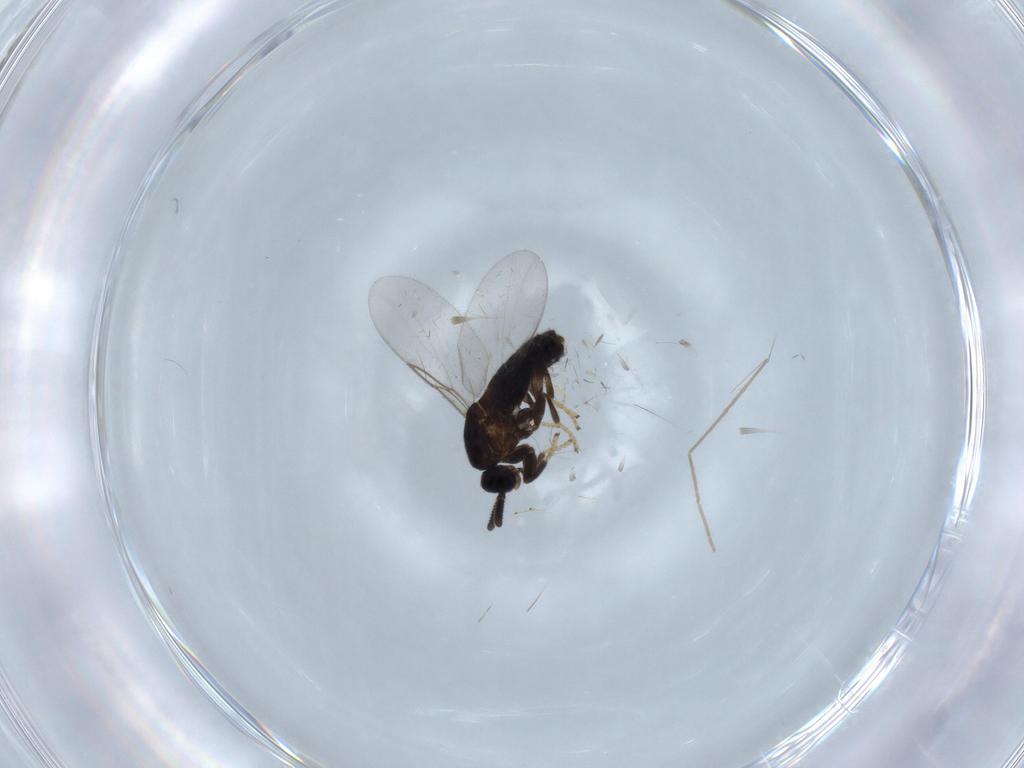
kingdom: Animalia
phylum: Arthropoda
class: Insecta
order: Diptera
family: Scatopsidae
